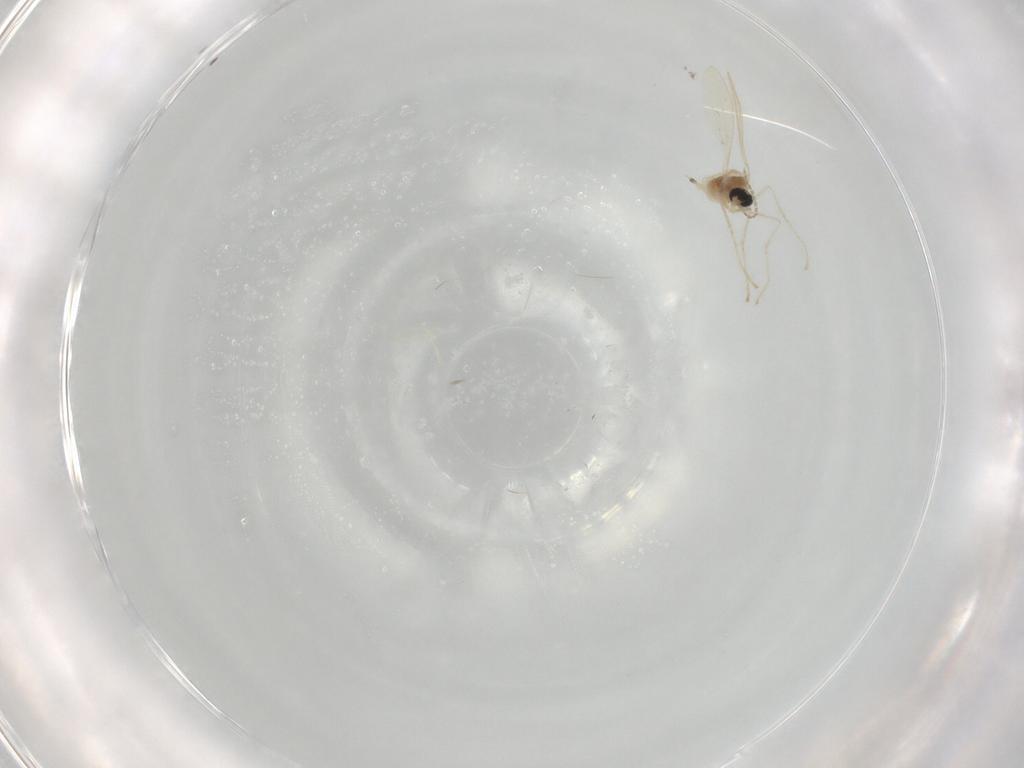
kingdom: Animalia
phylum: Arthropoda
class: Insecta
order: Diptera
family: Cecidomyiidae
